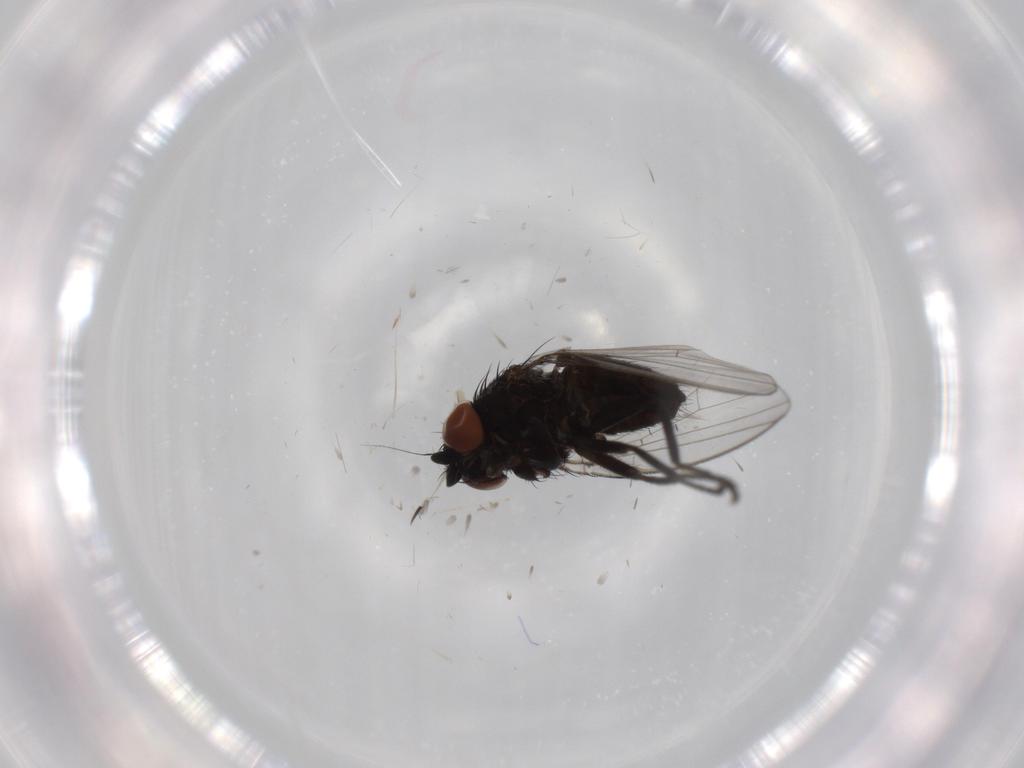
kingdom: Animalia
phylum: Arthropoda
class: Insecta
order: Diptera
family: Milichiidae
